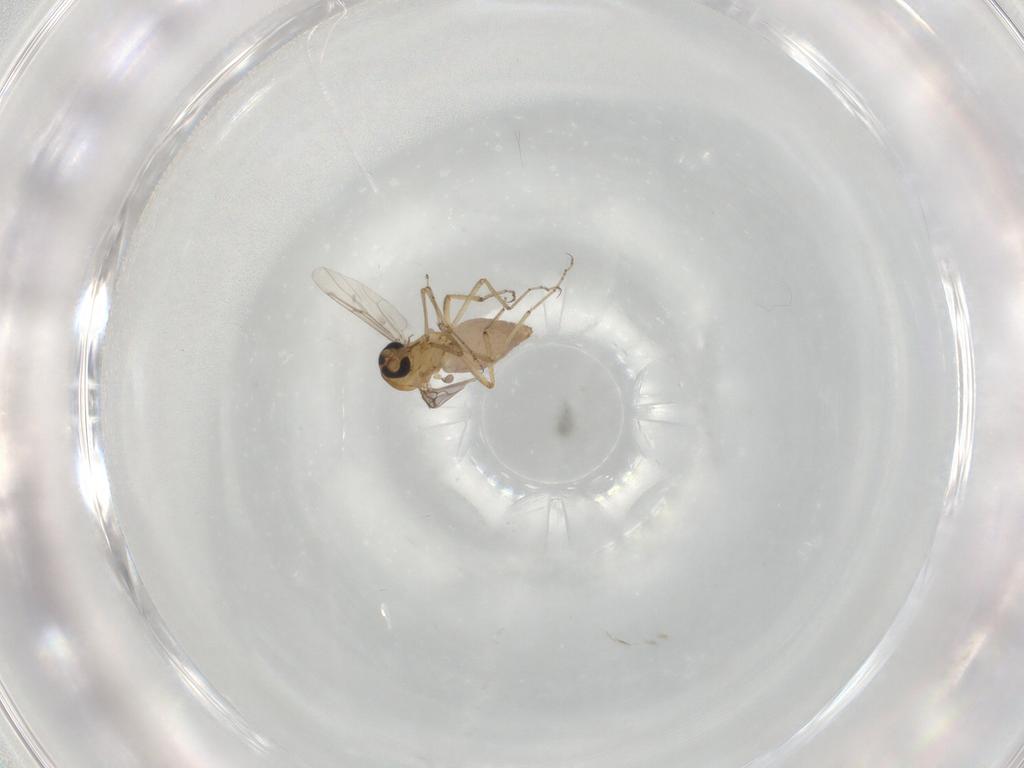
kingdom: Animalia
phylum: Arthropoda
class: Insecta
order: Diptera
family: Ceratopogonidae
